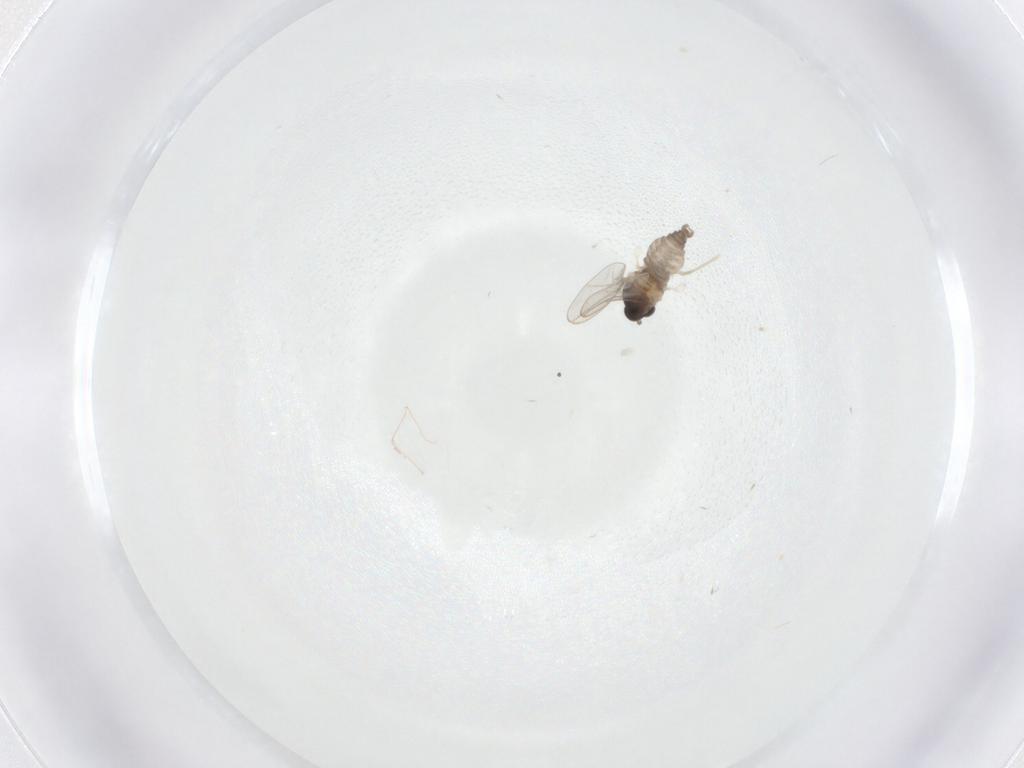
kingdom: Animalia
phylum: Arthropoda
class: Insecta
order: Diptera
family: Cecidomyiidae
